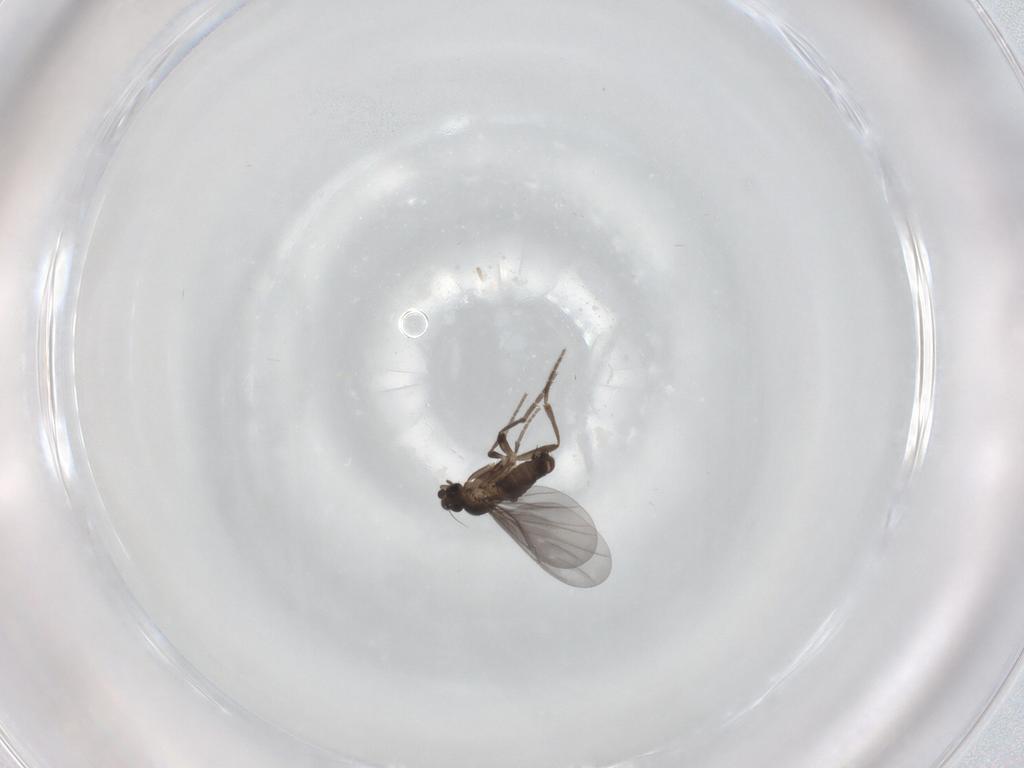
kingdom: Animalia
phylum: Arthropoda
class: Insecta
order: Diptera
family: Phoridae
